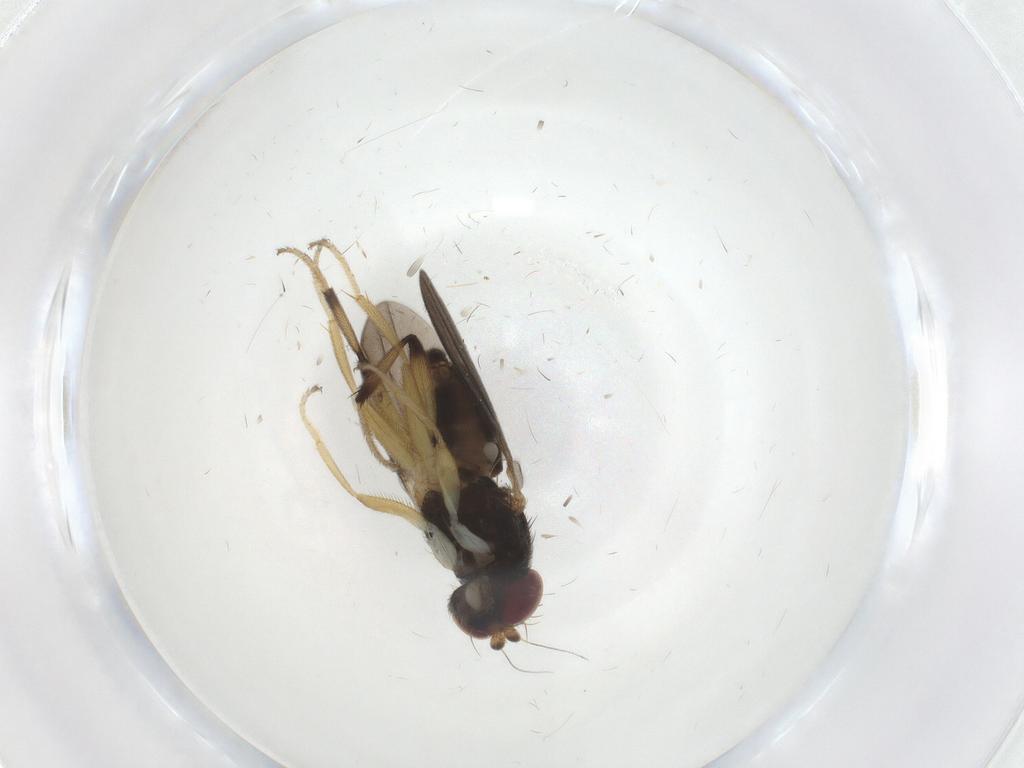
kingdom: Animalia
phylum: Arthropoda
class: Insecta
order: Diptera
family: Clusiidae
